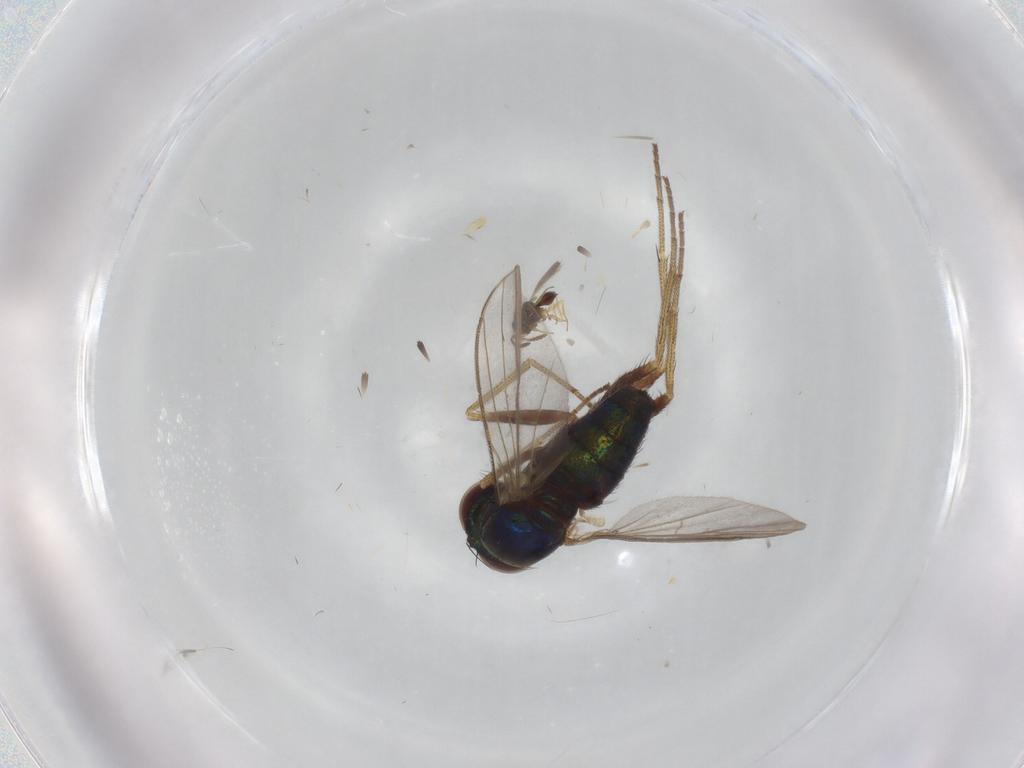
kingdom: Animalia
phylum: Arthropoda
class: Insecta
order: Diptera
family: Dolichopodidae
